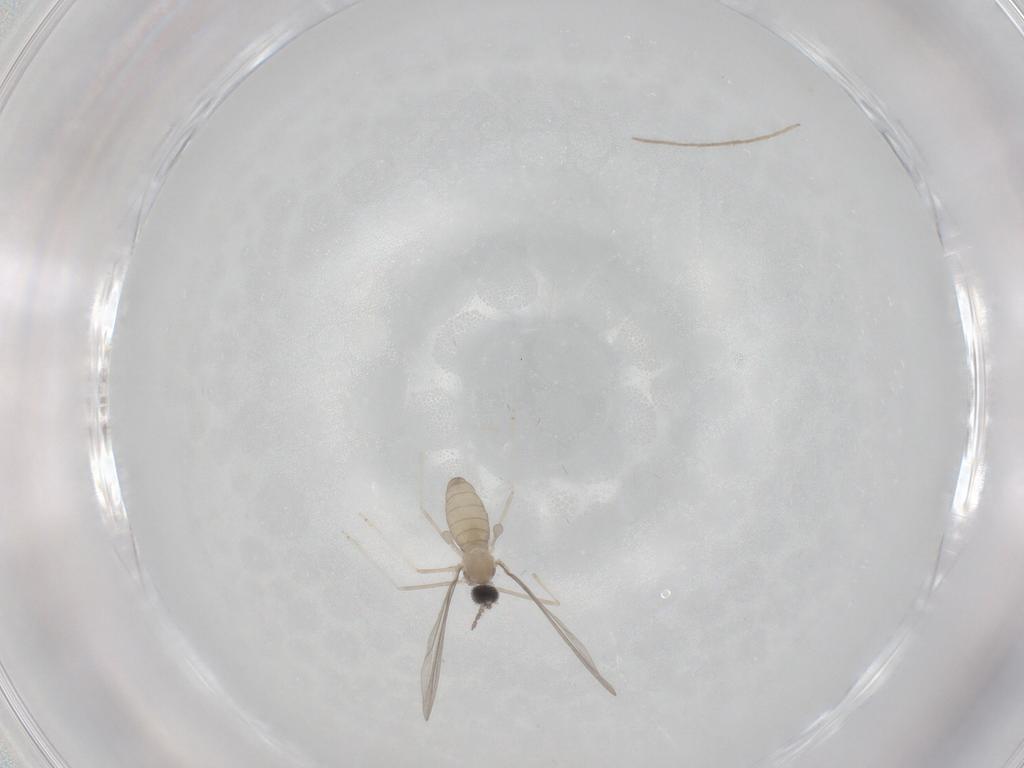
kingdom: Animalia
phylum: Arthropoda
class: Insecta
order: Diptera
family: Cecidomyiidae
